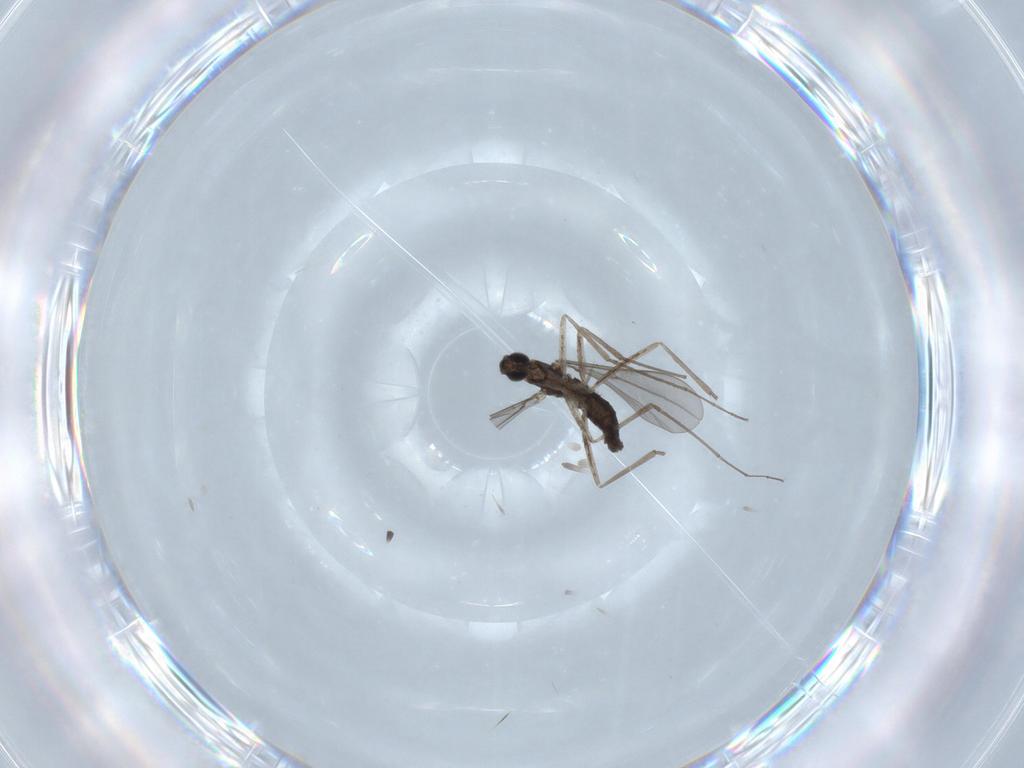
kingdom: Animalia
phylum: Arthropoda
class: Insecta
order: Diptera
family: Cecidomyiidae
